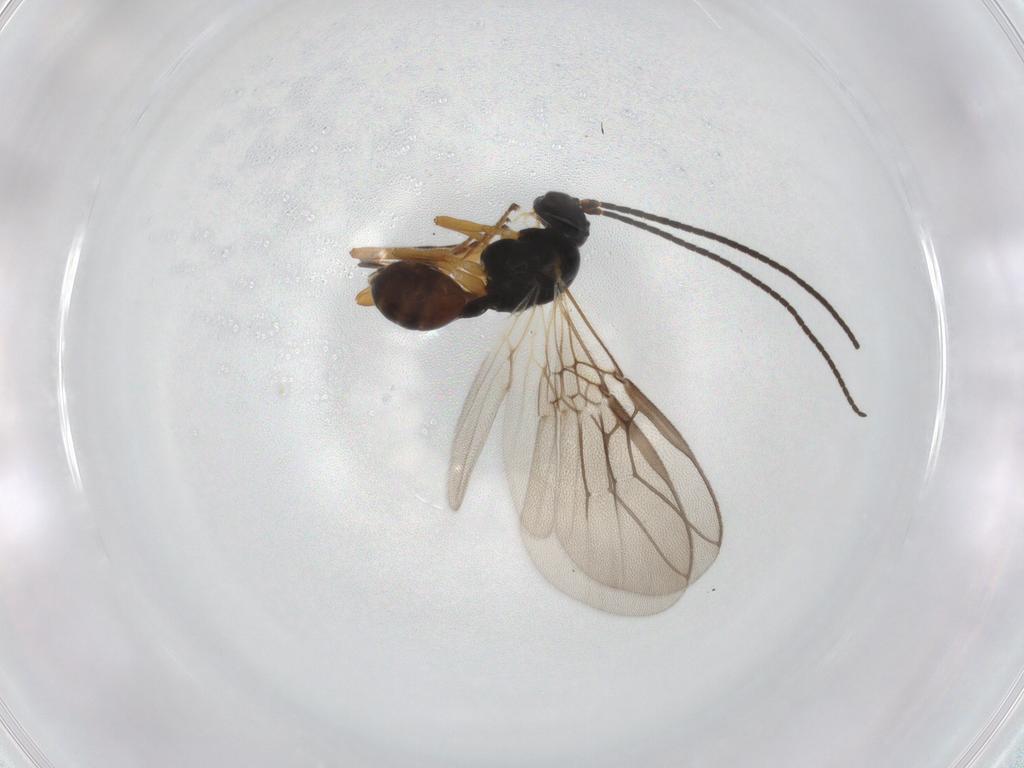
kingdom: Animalia
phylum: Arthropoda
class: Insecta
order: Hymenoptera
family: Braconidae
